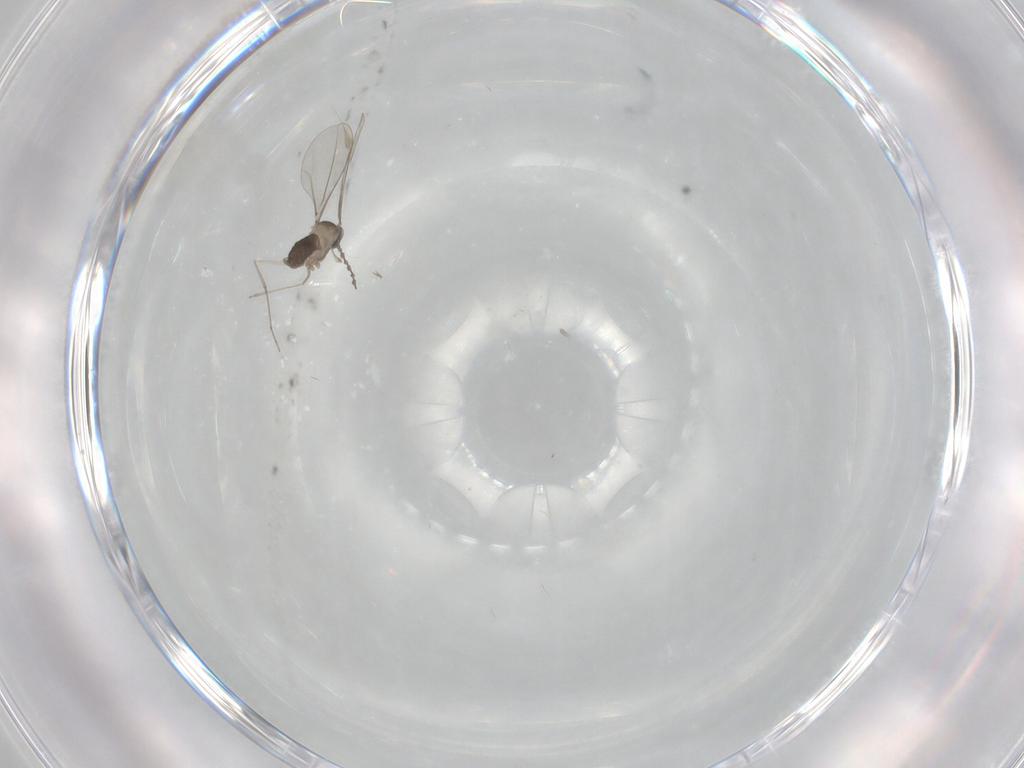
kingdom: Animalia
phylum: Arthropoda
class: Insecta
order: Diptera
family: Cecidomyiidae
